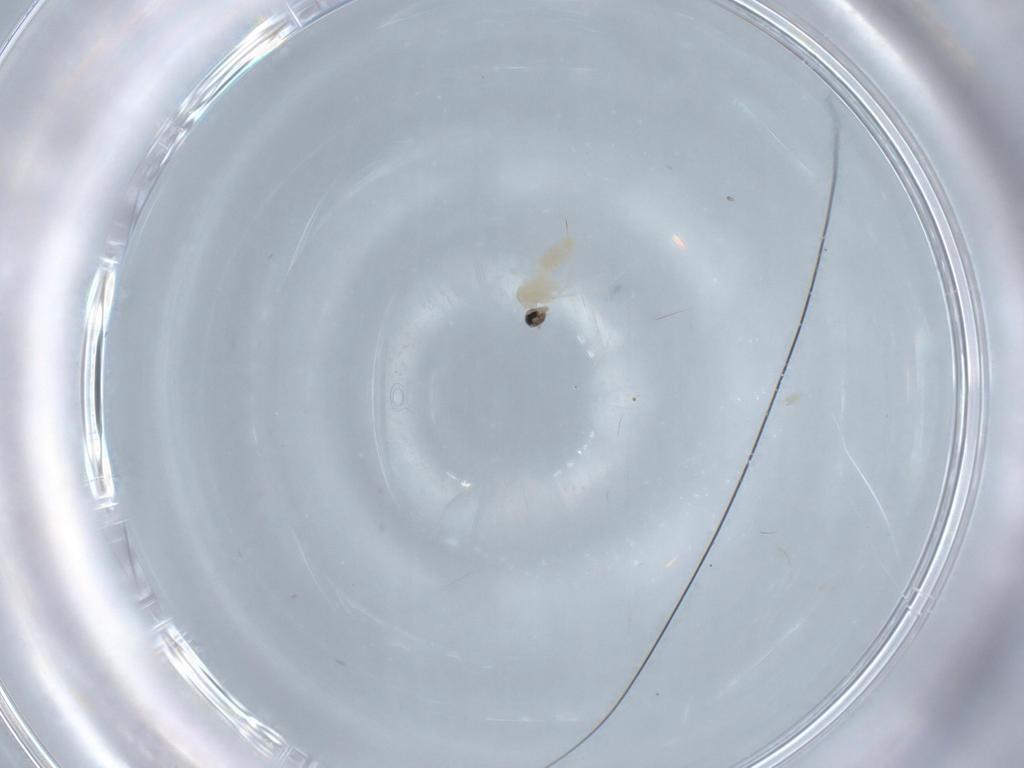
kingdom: Animalia
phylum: Arthropoda
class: Insecta
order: Diptera
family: Cecidomyiidae
